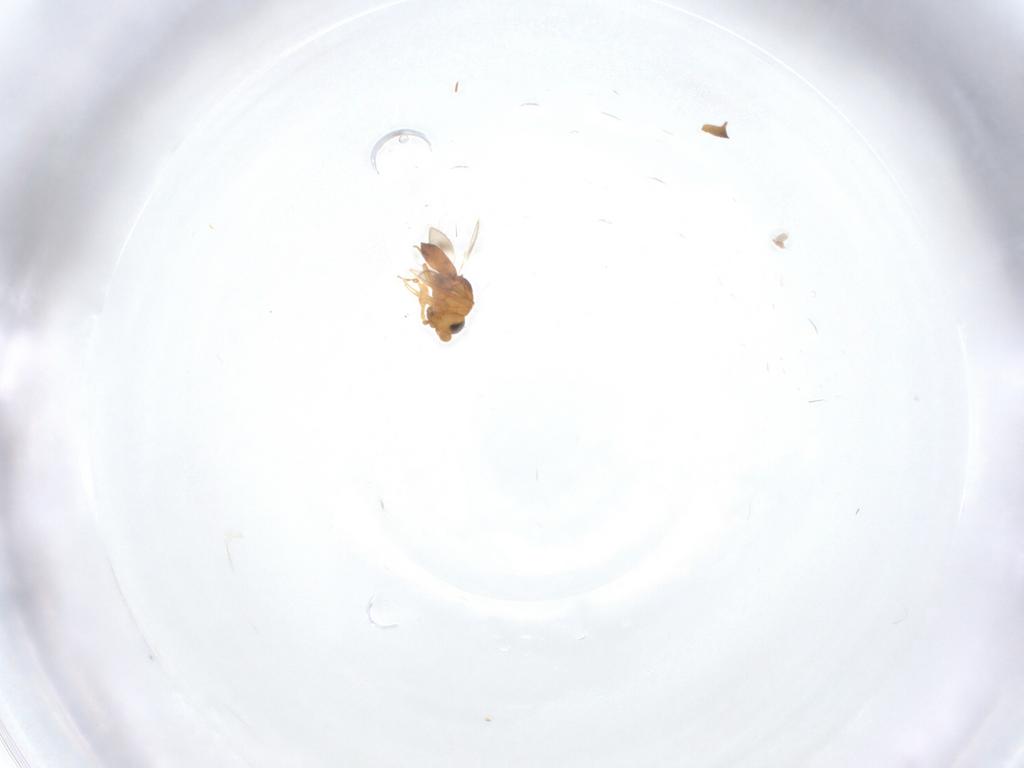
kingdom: Animalia
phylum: Arthropoda
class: Insecta
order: Hymenoptera
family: Scelionidae
